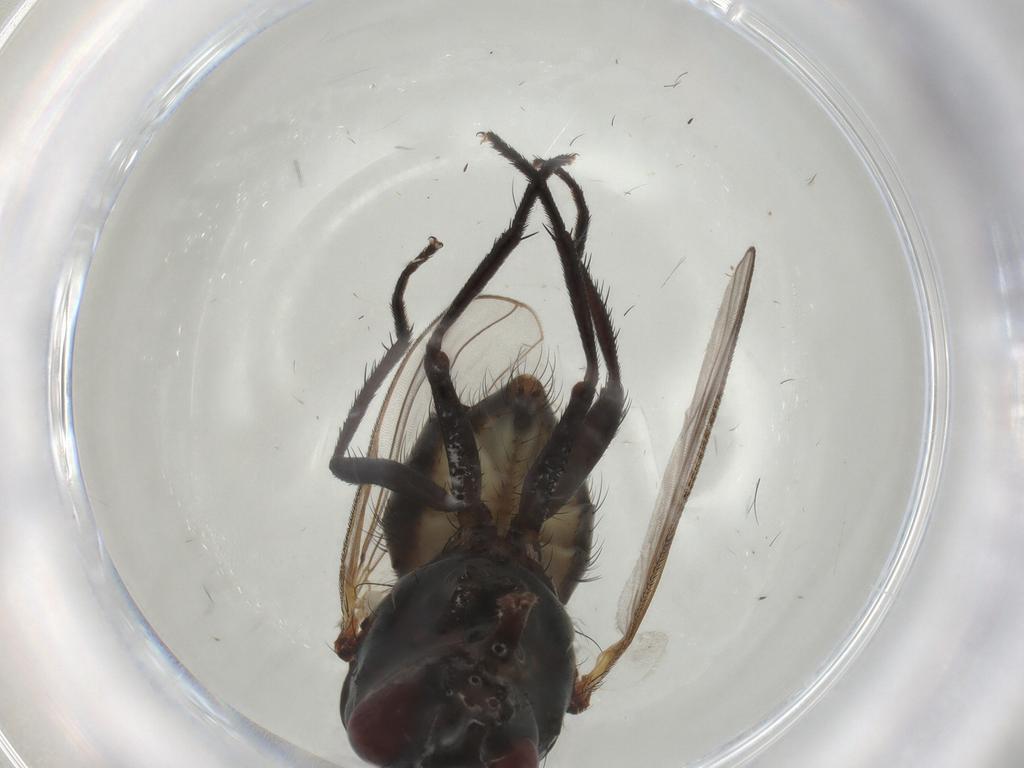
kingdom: Animalia
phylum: Arthropoda
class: Insecta
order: Diptera
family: Anthomyiidae
